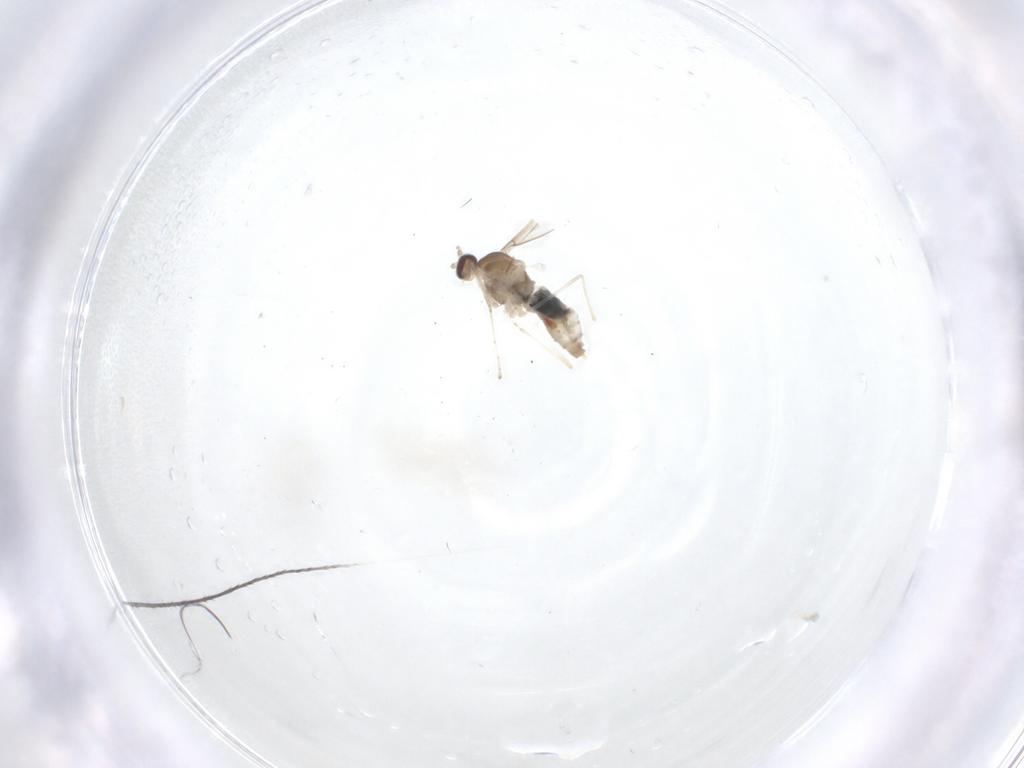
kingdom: Animalia
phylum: Arthropoda
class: Insecta
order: Diptera
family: Cecidomyiidae
